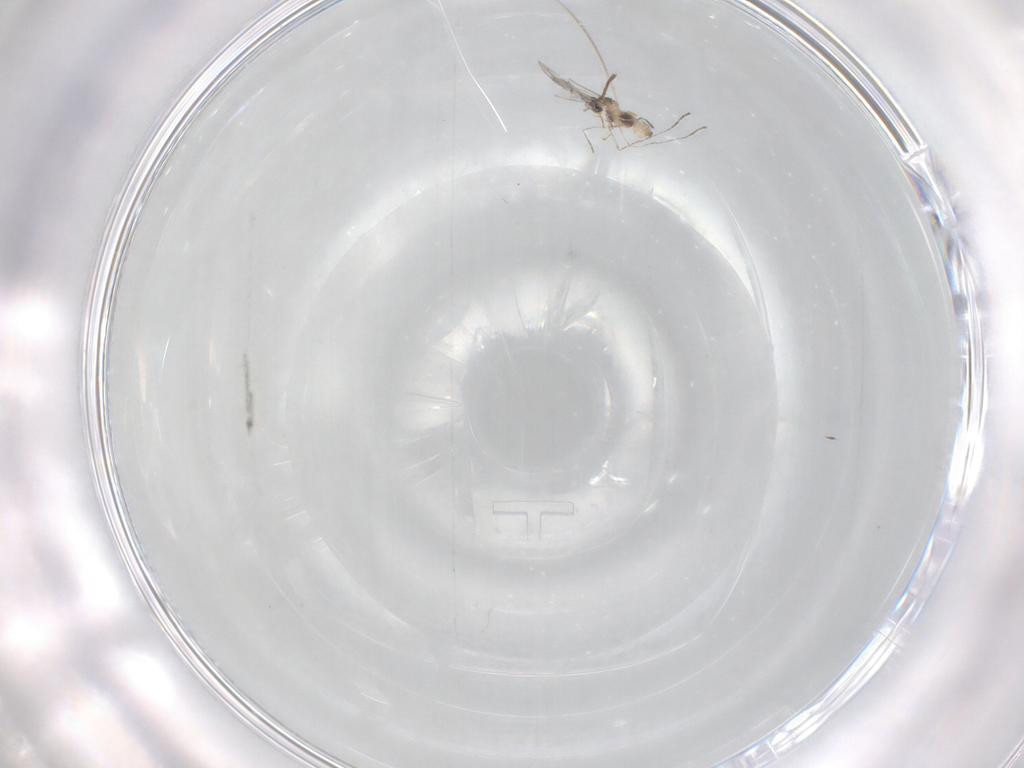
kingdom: Animalia
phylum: Arthropoda
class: Insecta
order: Diptera
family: Cecidomyiidae
